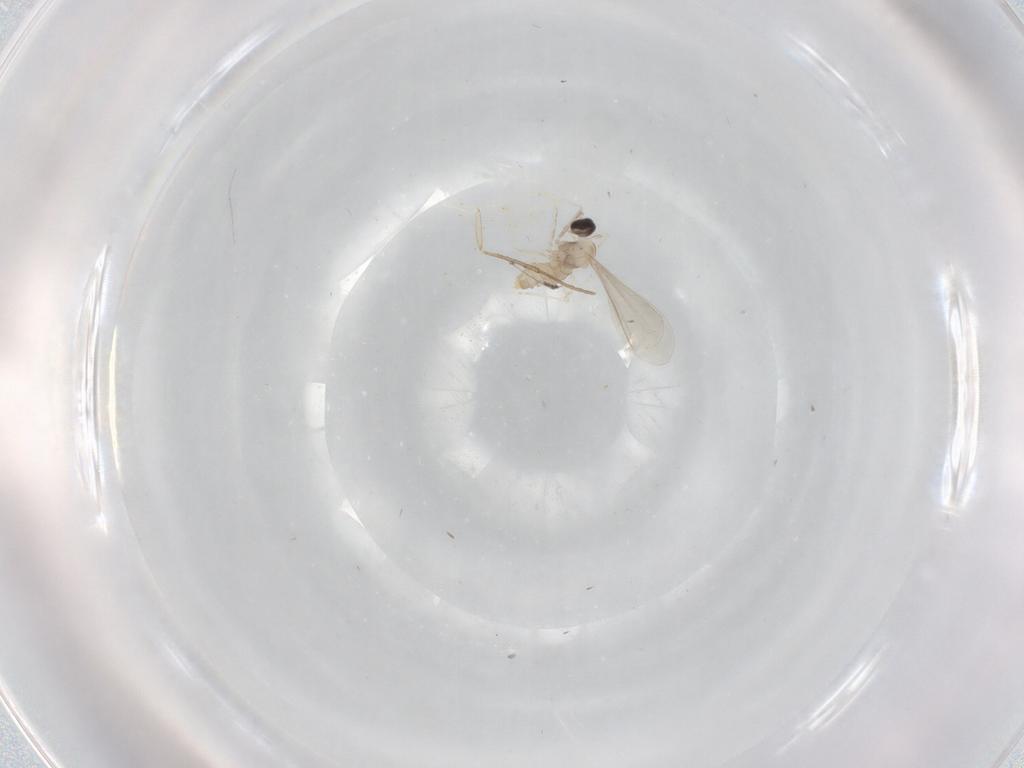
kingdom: Animalia
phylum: Arthropoda
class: Insecta
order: Diptera
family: Cecidomyiidae
